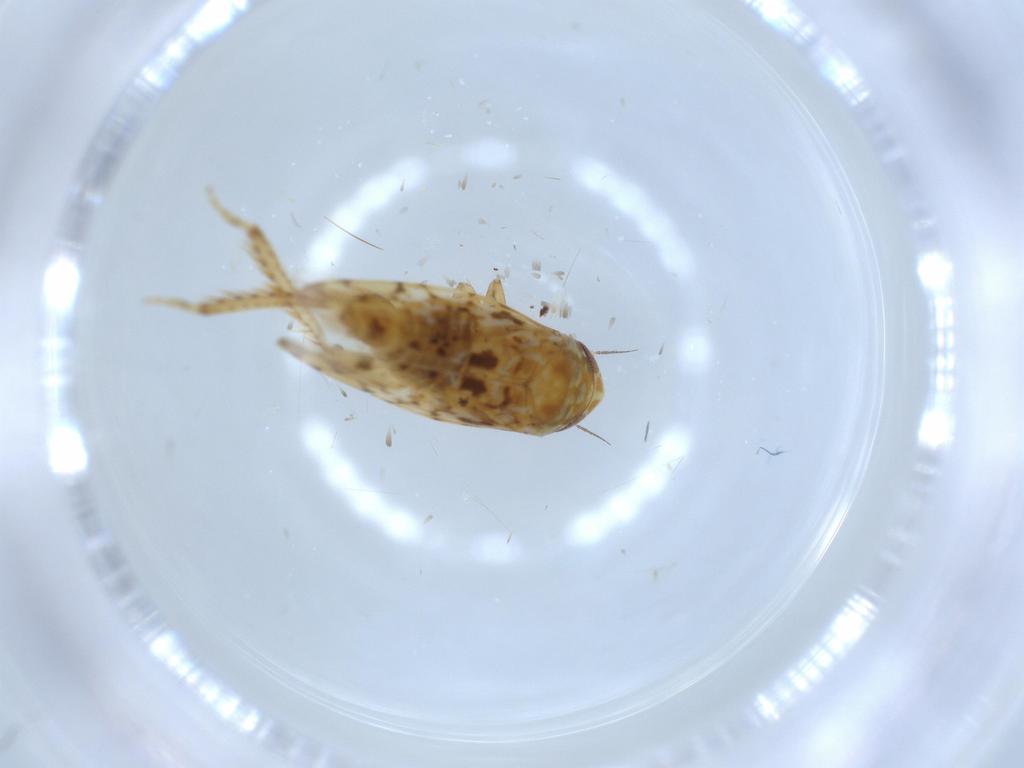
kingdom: Animalia
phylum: Arthropoda
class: Insecta
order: Hemiptera
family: Cicadellidae
